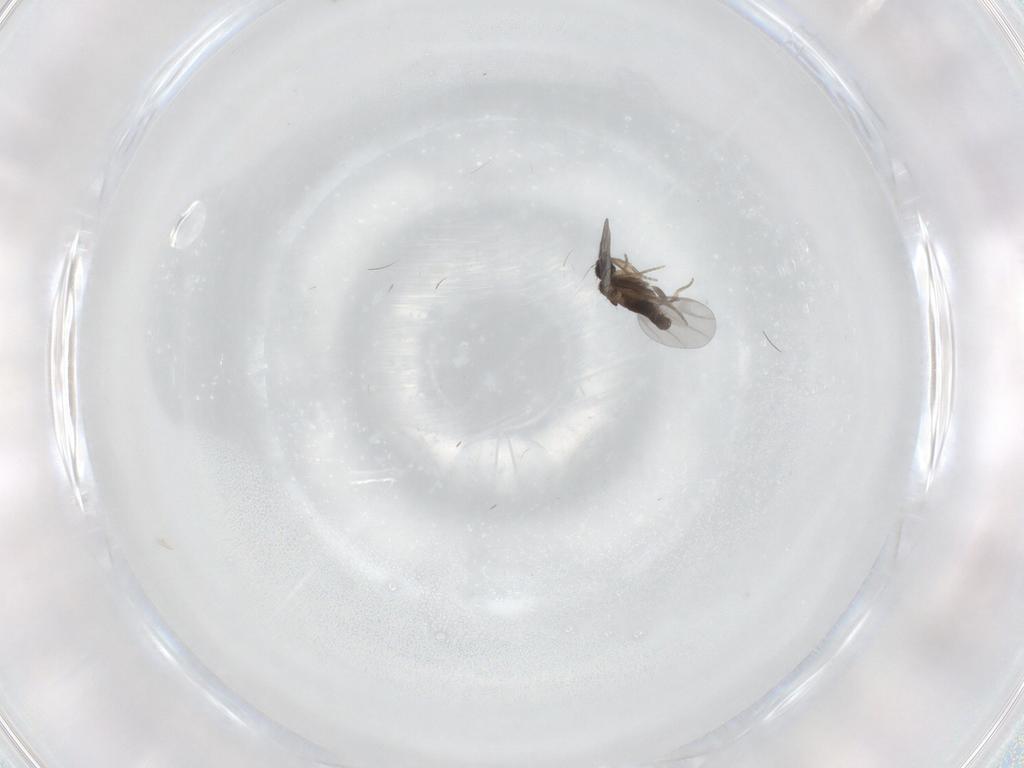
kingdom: Animalia
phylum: Arthropoda
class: Insecta
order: Diptera
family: Cecidomyiidae
